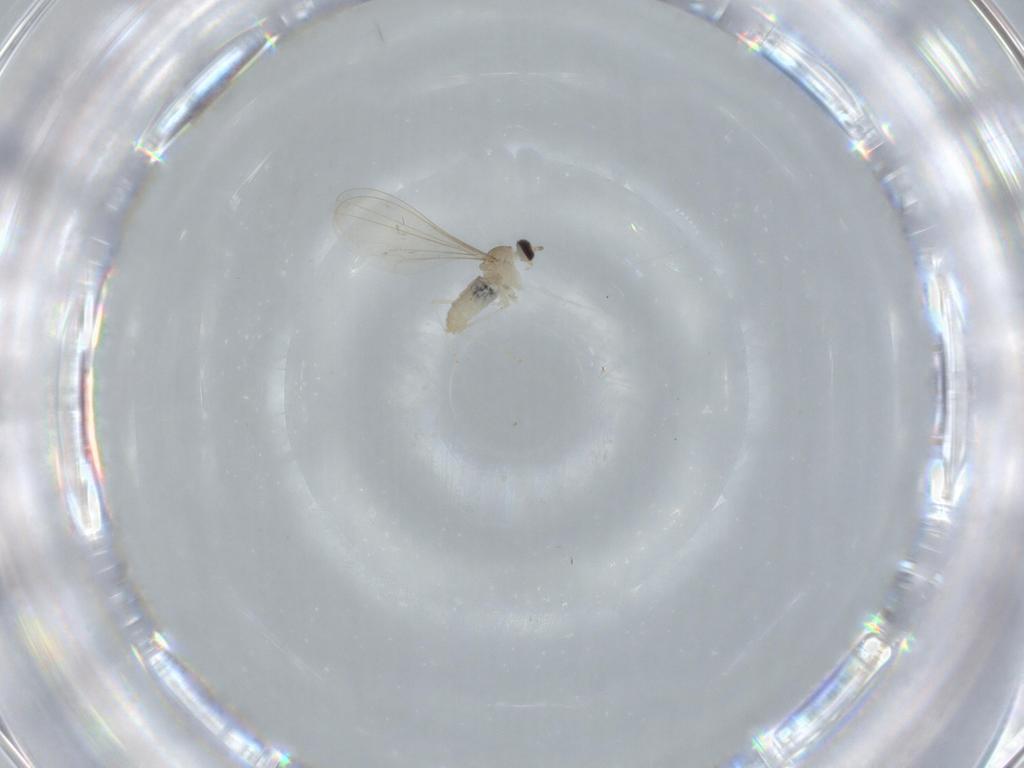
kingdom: Animalia
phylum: Arthropoda
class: Insecta
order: Diptera
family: Cecidomyiidae
